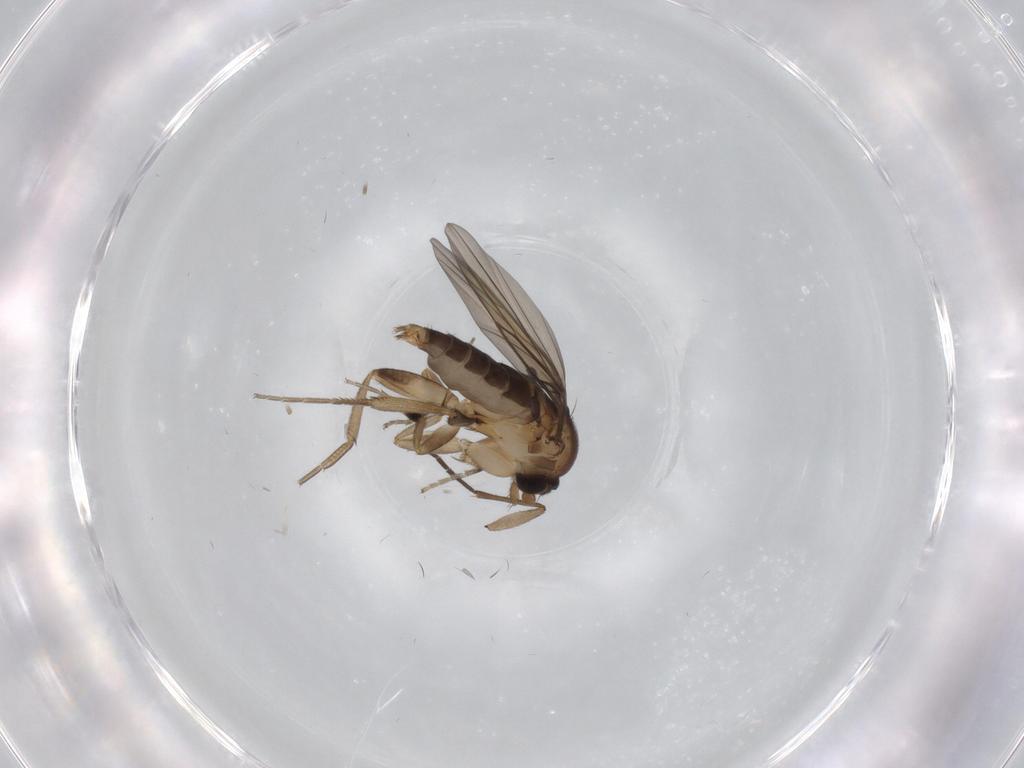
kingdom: Animalia
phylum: Arthropoda
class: Insecta
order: Diptera
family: Phoridae
